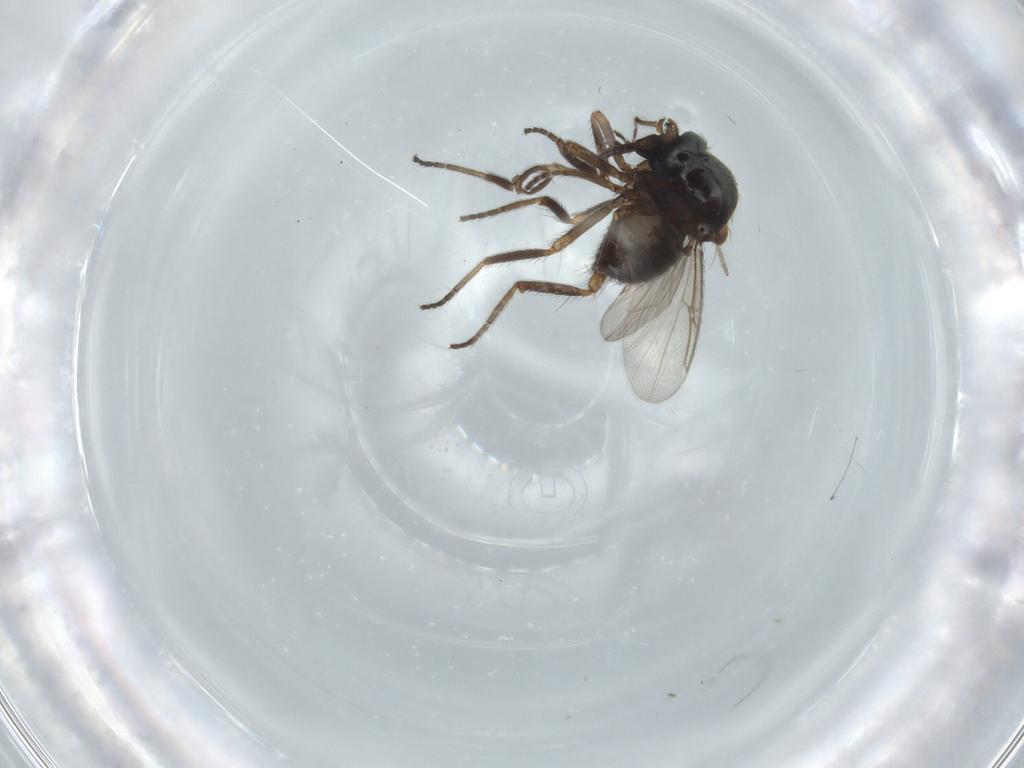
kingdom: Animalia
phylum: Arthropoda
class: Insecta
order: Diptera
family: Ceratopogonidae
